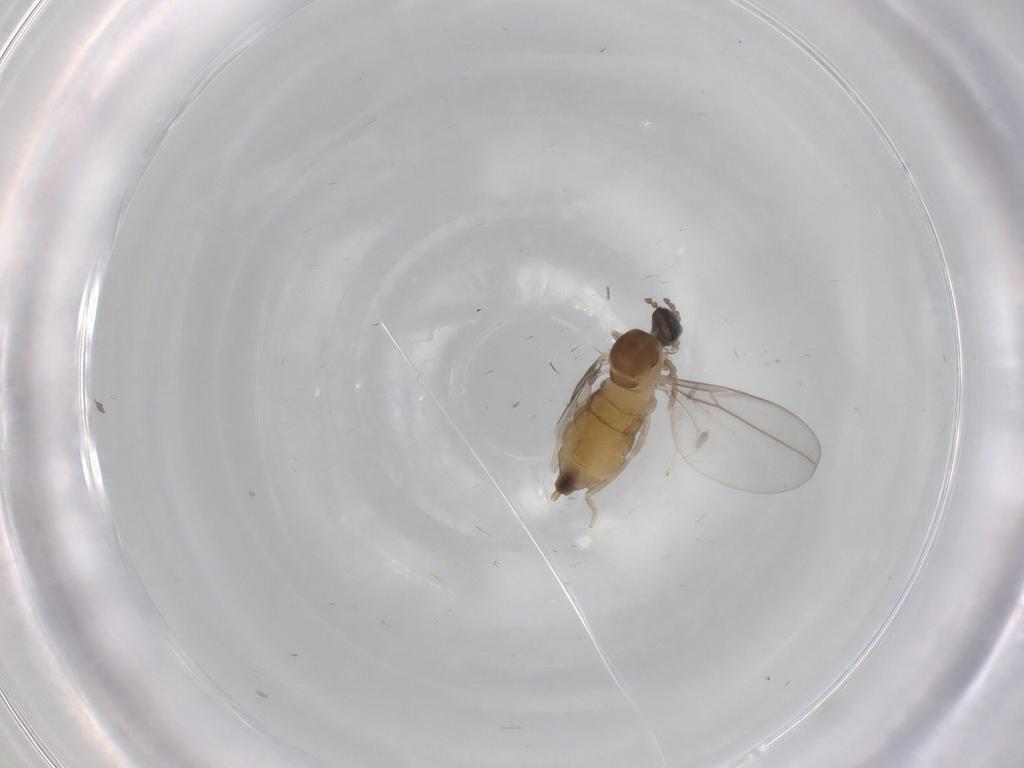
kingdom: Animalia
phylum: Arthropoda
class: Insecta
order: Diptera
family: Cecidomyiidae
